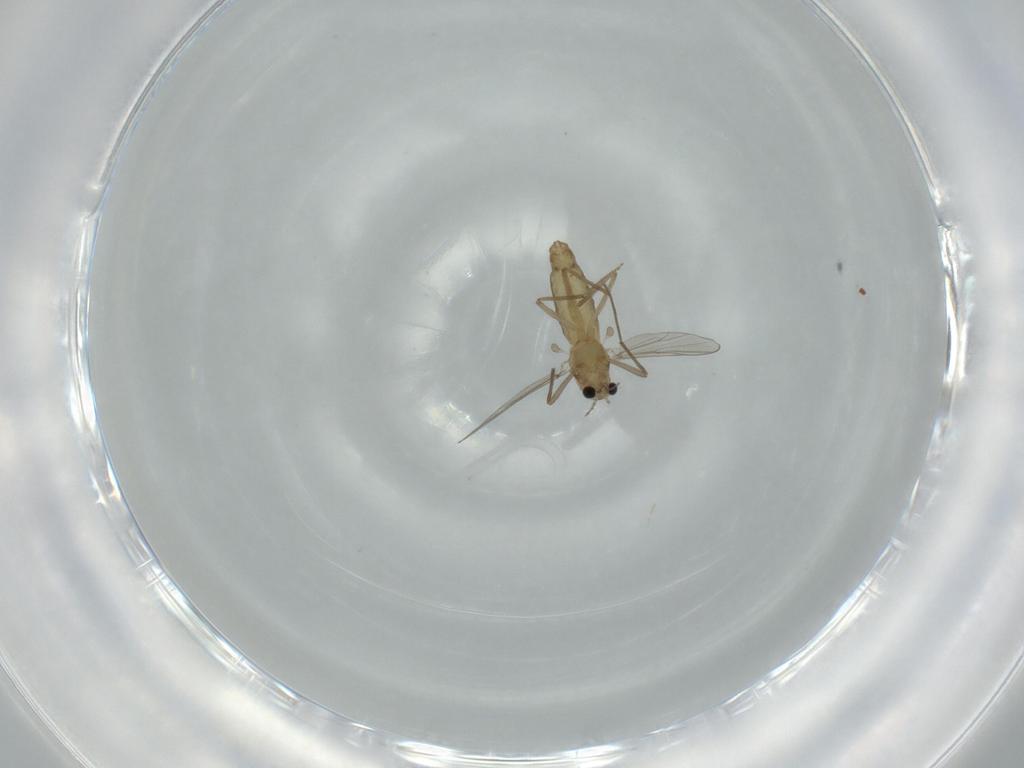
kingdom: Animalia
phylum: Arthropoda
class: Insecta
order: Diptera
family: Chironomidae
